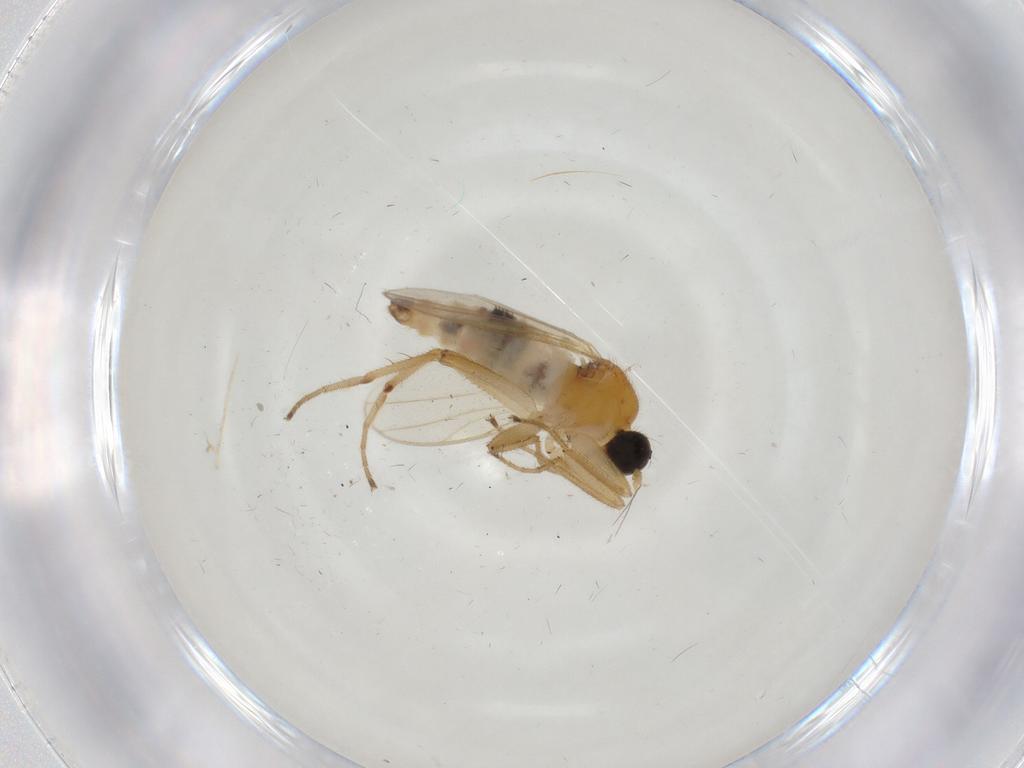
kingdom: Animalia
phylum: Arthropoda
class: Insecta
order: Diptera
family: Hybotidae
